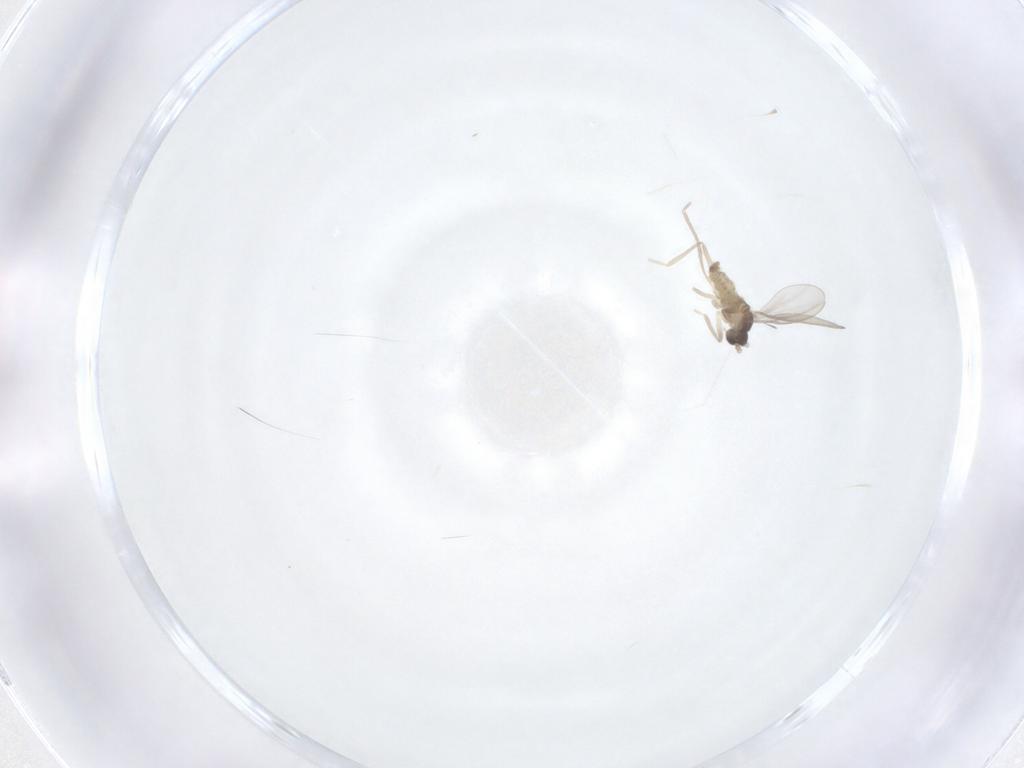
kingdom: Animalia
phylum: Arthropoda
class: Insecta
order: Diptera
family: Cecidomyiidae
